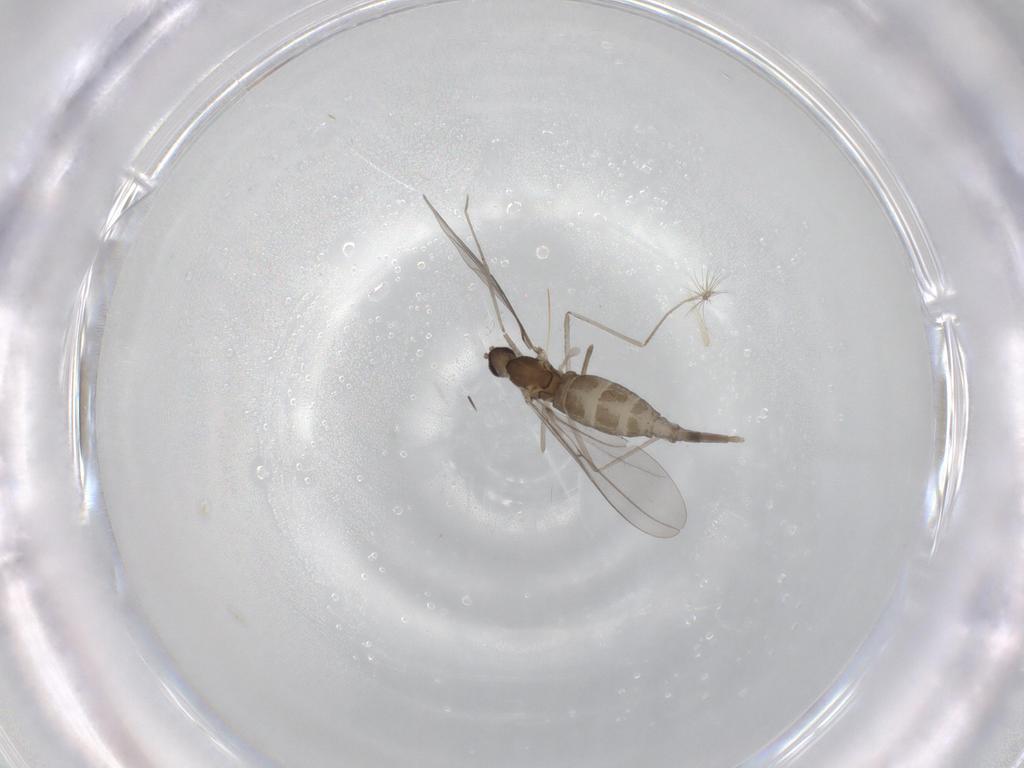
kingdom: Animalia
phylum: Arthropoda
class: Insecta
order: Diptera
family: Cecidomyiidae
